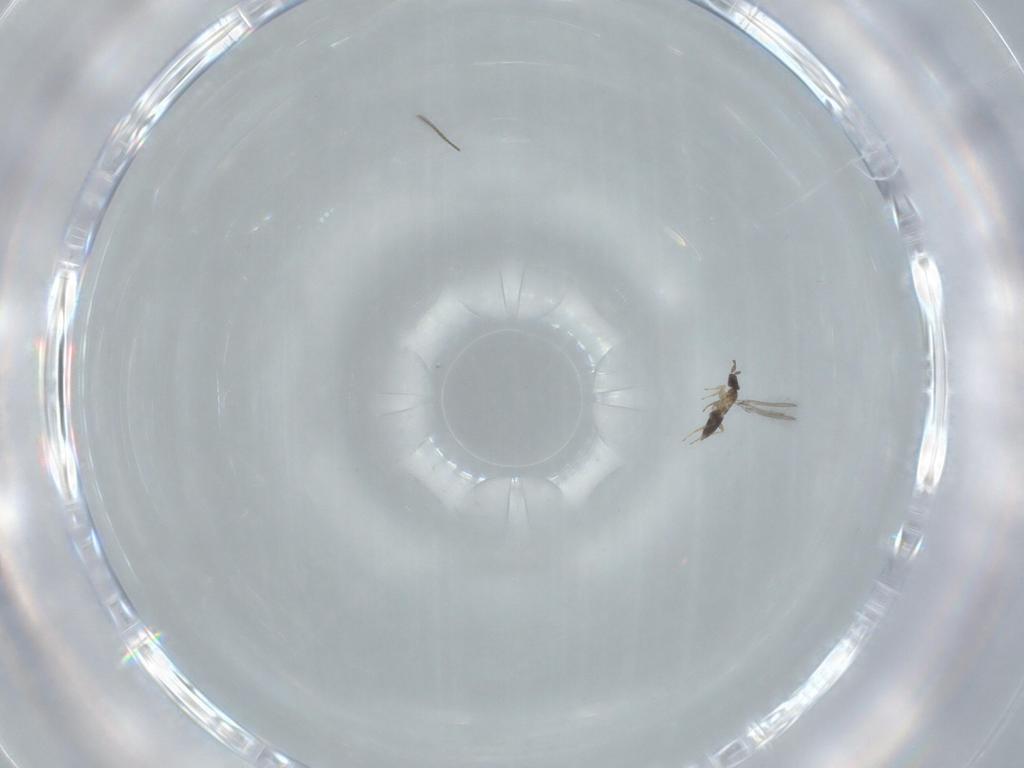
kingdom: Animalia
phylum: Arthropoda
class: Insecta
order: Hymenoptera
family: Mymaridae
